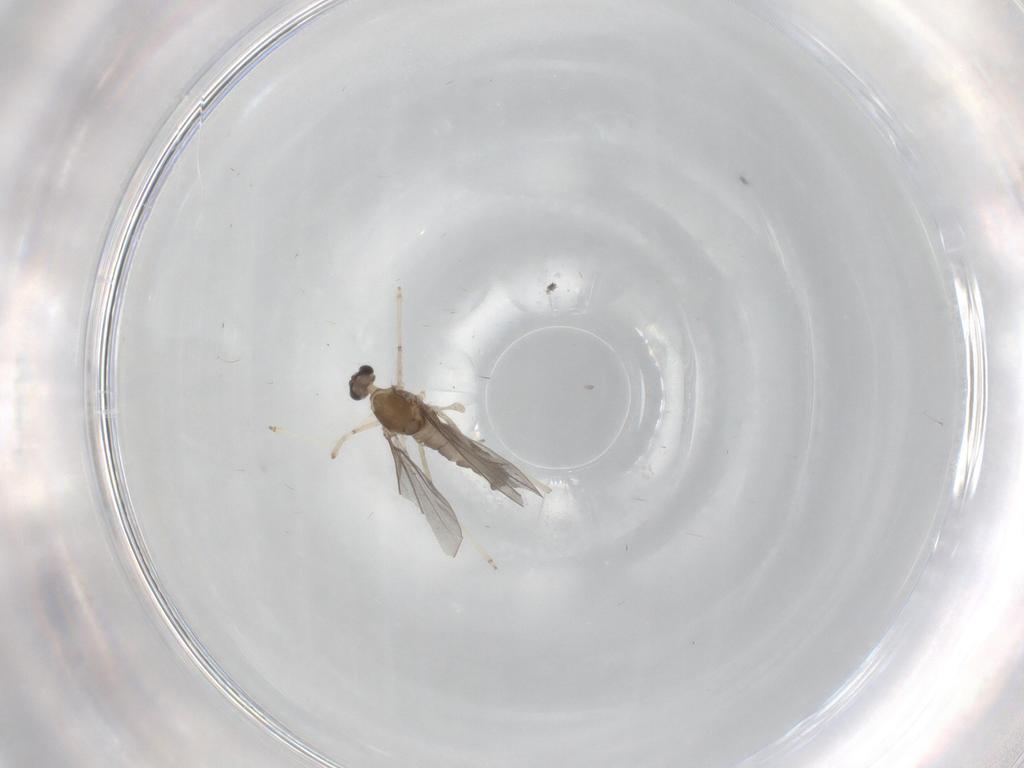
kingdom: Animalia
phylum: Arthropoda
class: Insecta
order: Diptera
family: Cecidomyiidae
